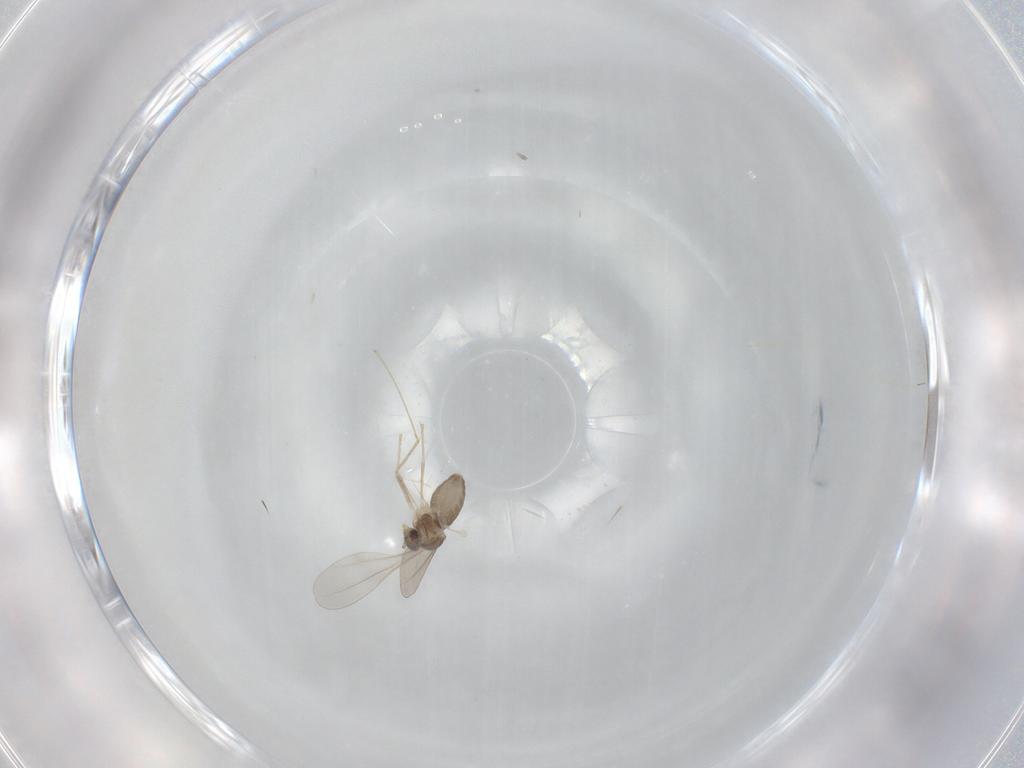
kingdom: Animalia
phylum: Arthropoda
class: Insecta
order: Diptera
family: Cecidomyiidae
